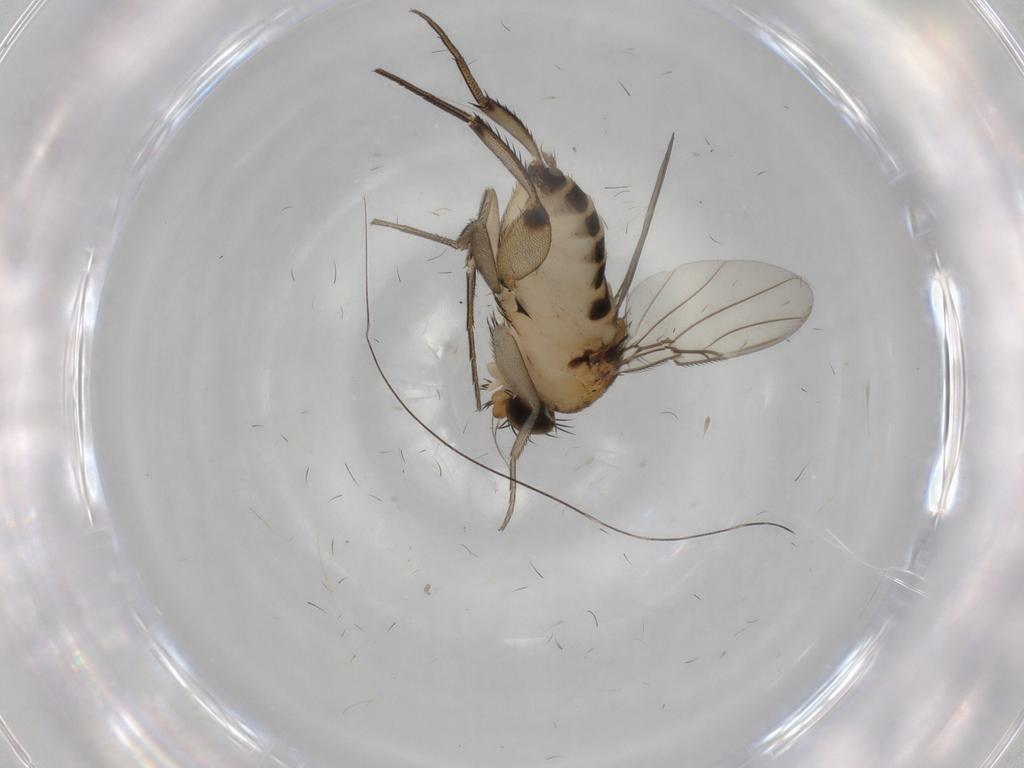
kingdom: Animalia
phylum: Arthropoda
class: Insecta
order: Diptera
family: Phoridae
